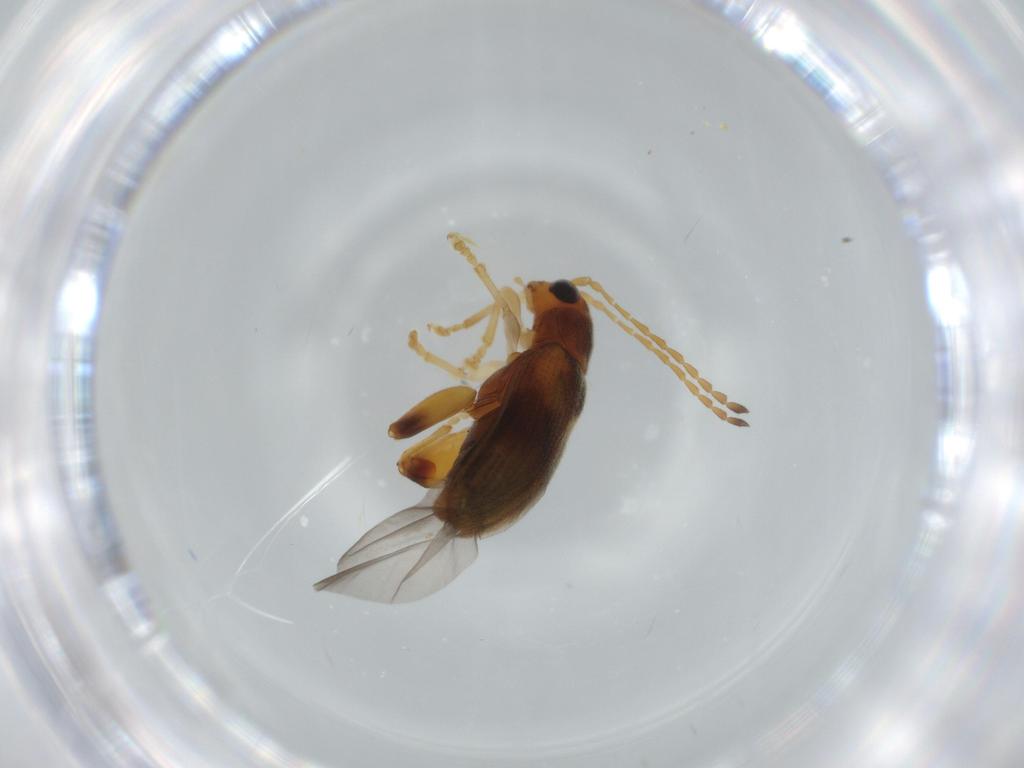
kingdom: Animalia
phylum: Arthropoda
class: Insecta
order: Coleoptera
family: Chrysomelidae
